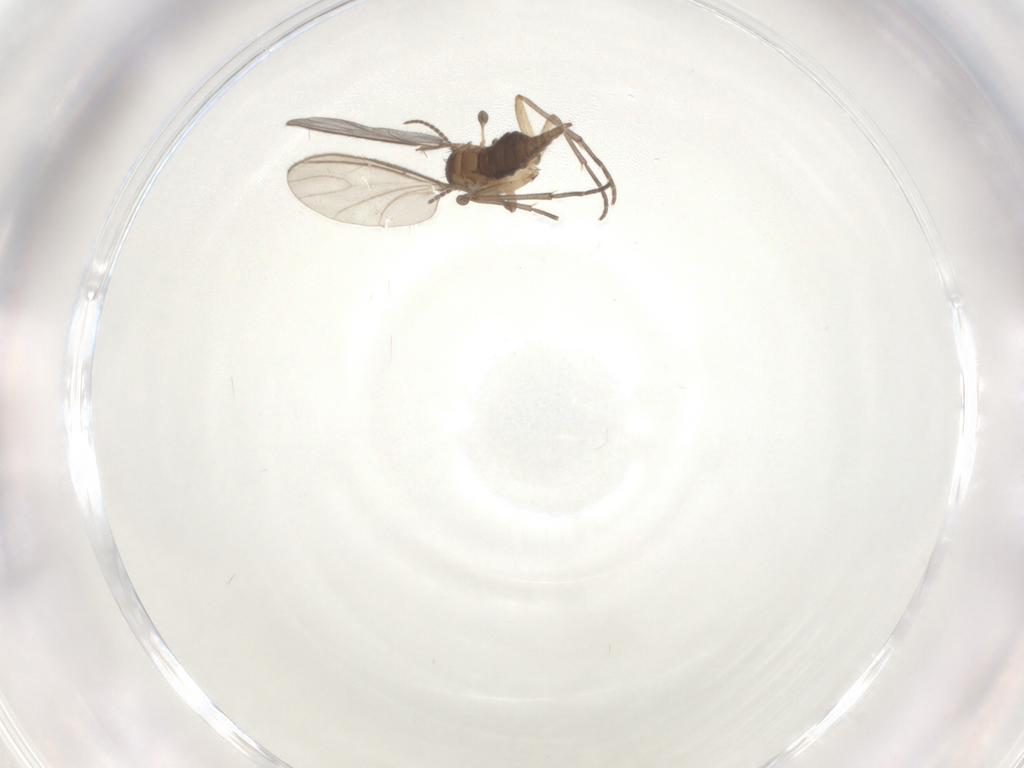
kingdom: Animalia
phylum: Arthropoda
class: Insecta
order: Diptera
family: Sciaridae
